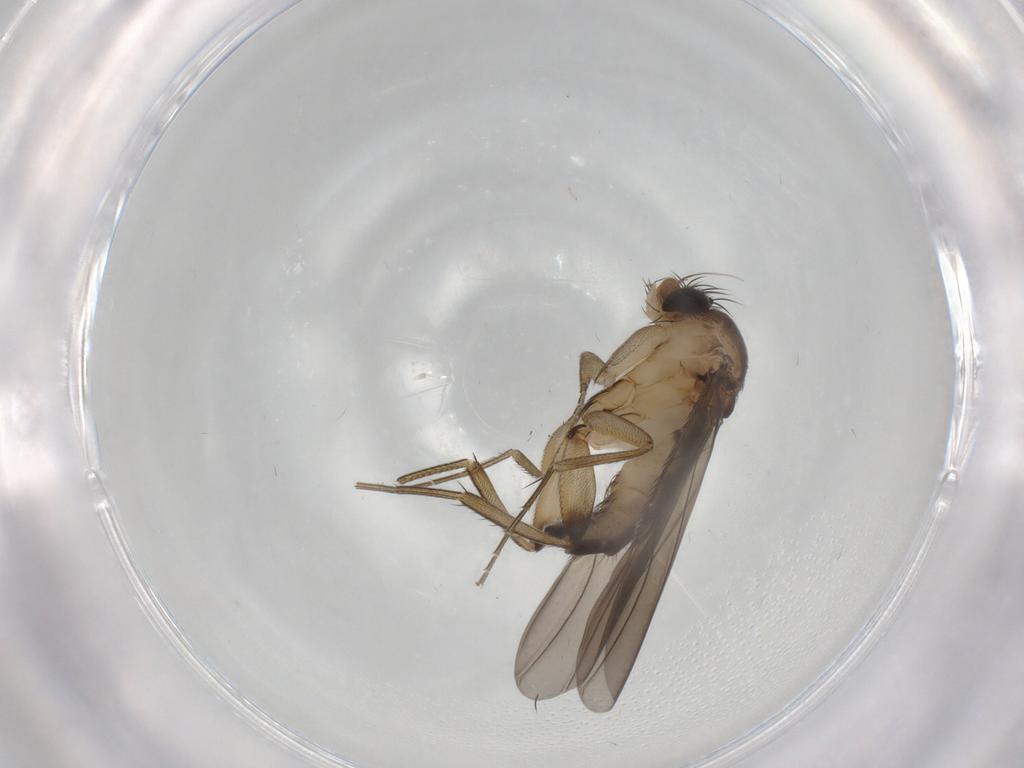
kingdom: Animalia
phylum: Arthropoda
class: Insecta
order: Diptera
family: Phoridae
